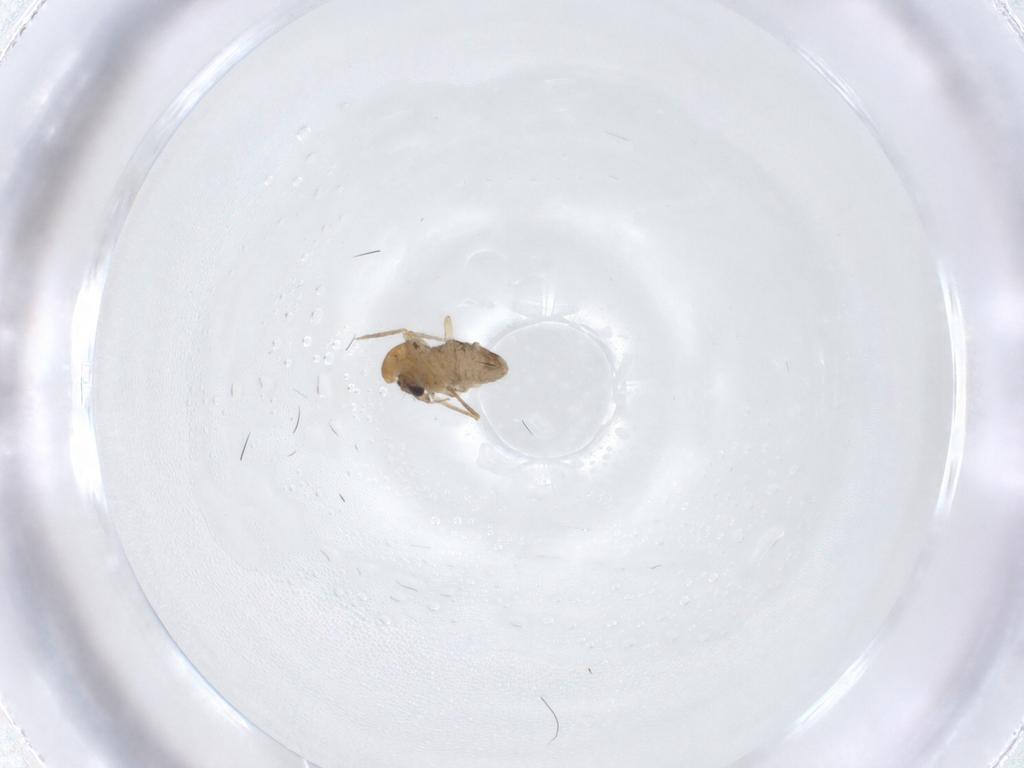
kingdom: Animalia
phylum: Arthropoda
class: Insecta
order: Diptera
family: Chironomidae
